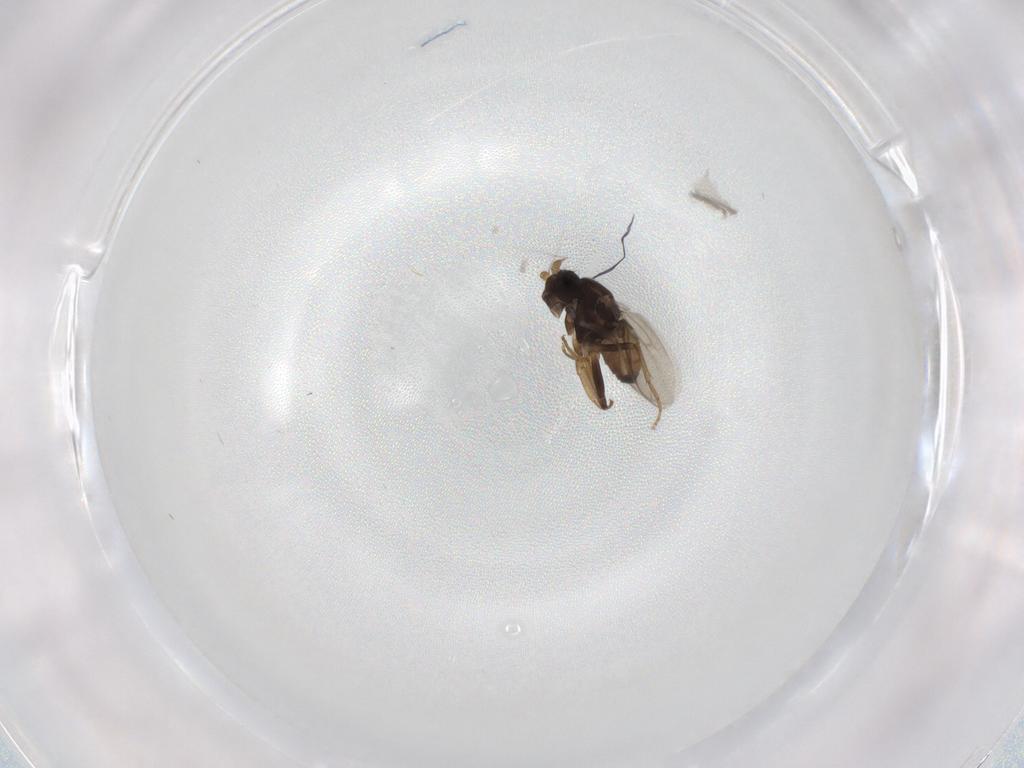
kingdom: Animalia
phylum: Arthropoda
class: Insecta
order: Diptera
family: Sphaeroceridae
